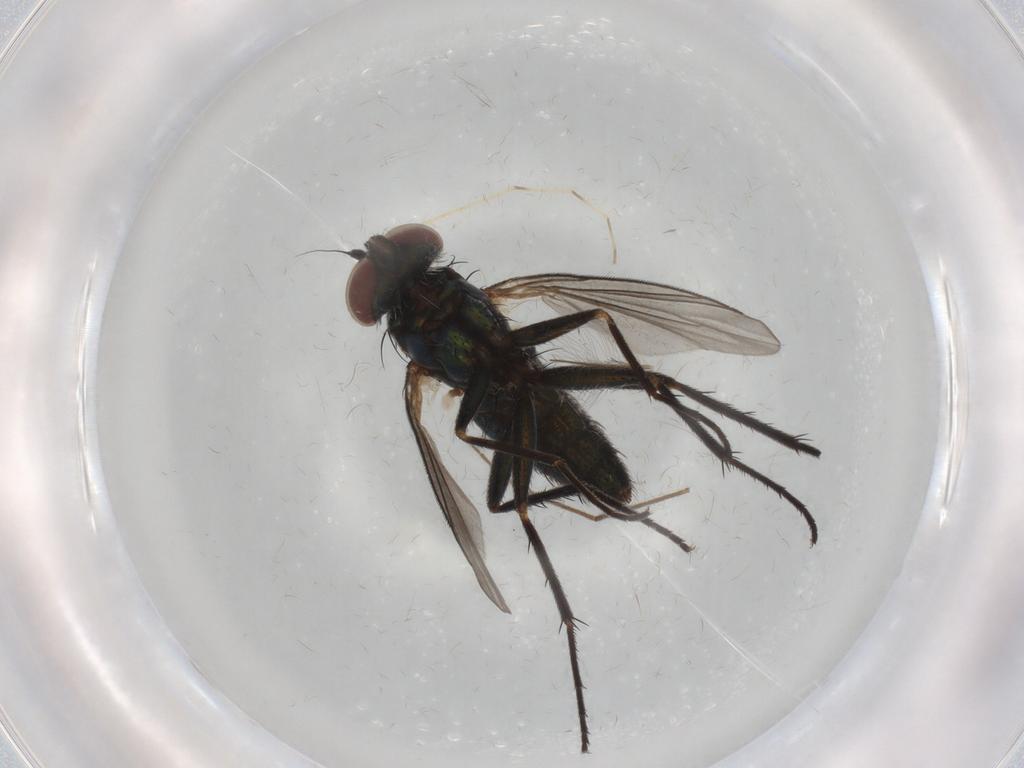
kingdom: Animalia
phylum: Arthropoda
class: Insecta
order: Diptera
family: Dolichopodidae
